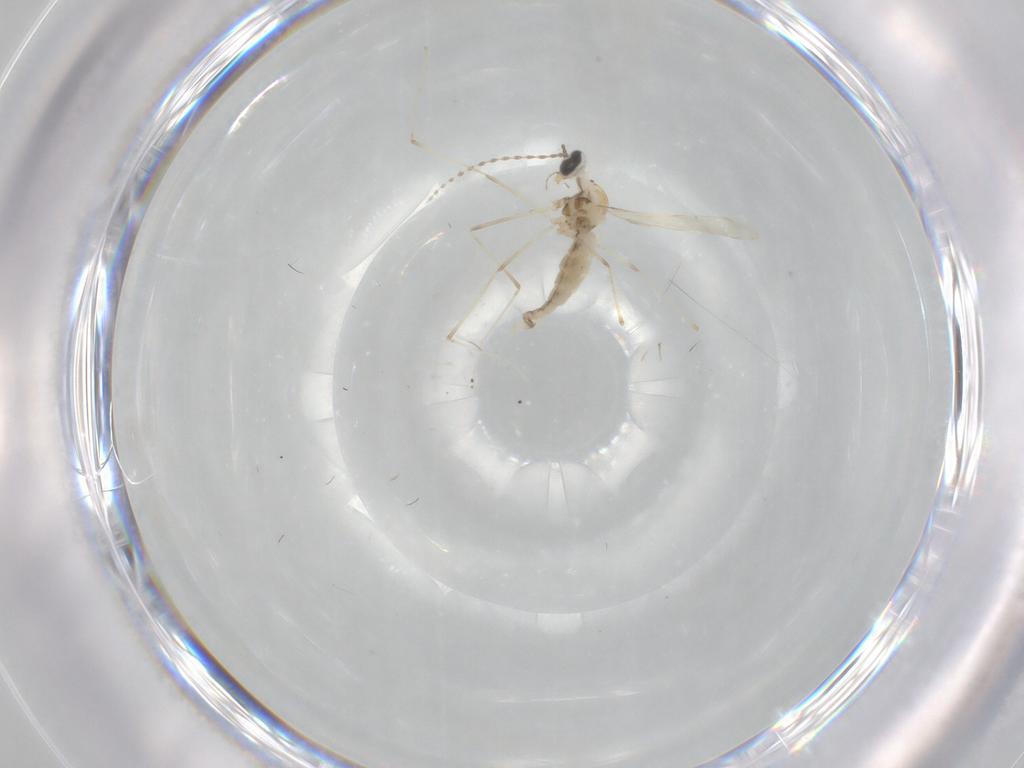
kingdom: Animalia
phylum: Arthropoda
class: Insecta
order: Diptera
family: Cecidomyiidae
